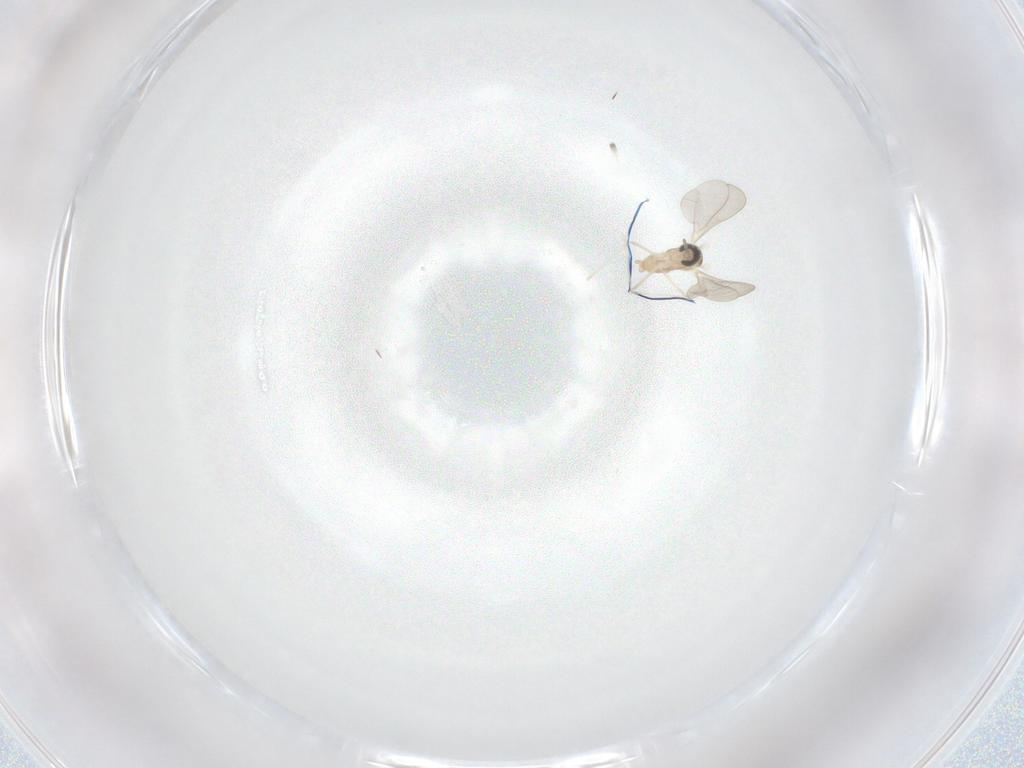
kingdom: Animalia
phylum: Arthropoda
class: Insecta
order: Diptera
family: Cecidomyiidae
